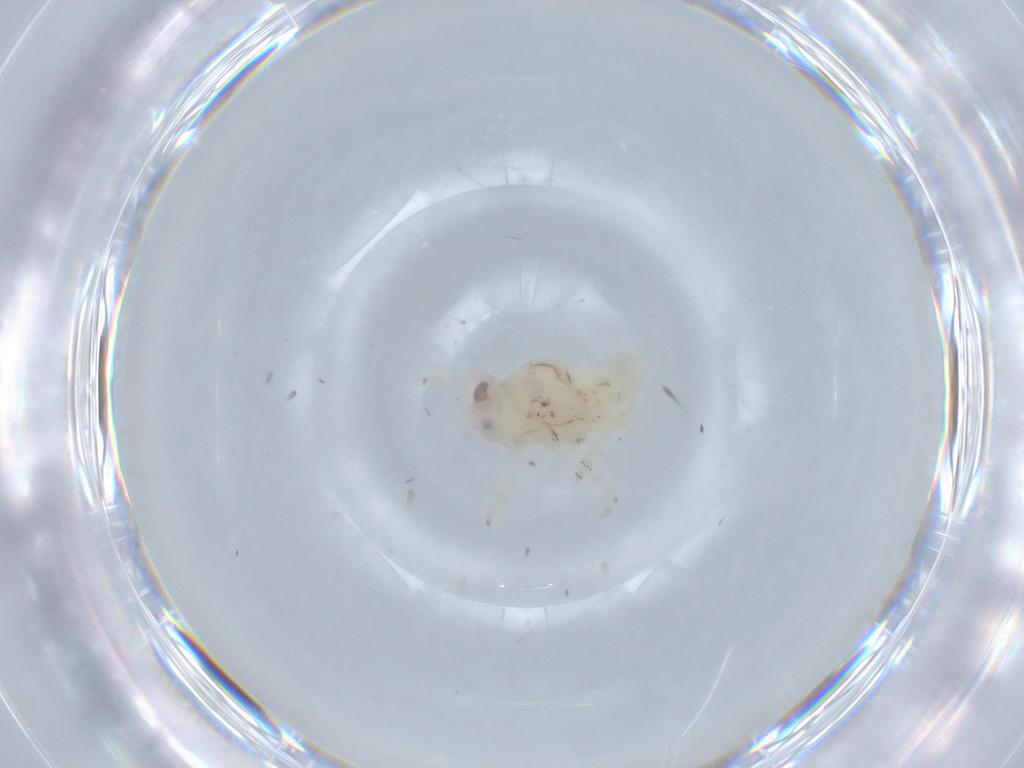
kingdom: Animalia
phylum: Arthropoda
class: Insecta
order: Hemiptera
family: Nogodinidae
